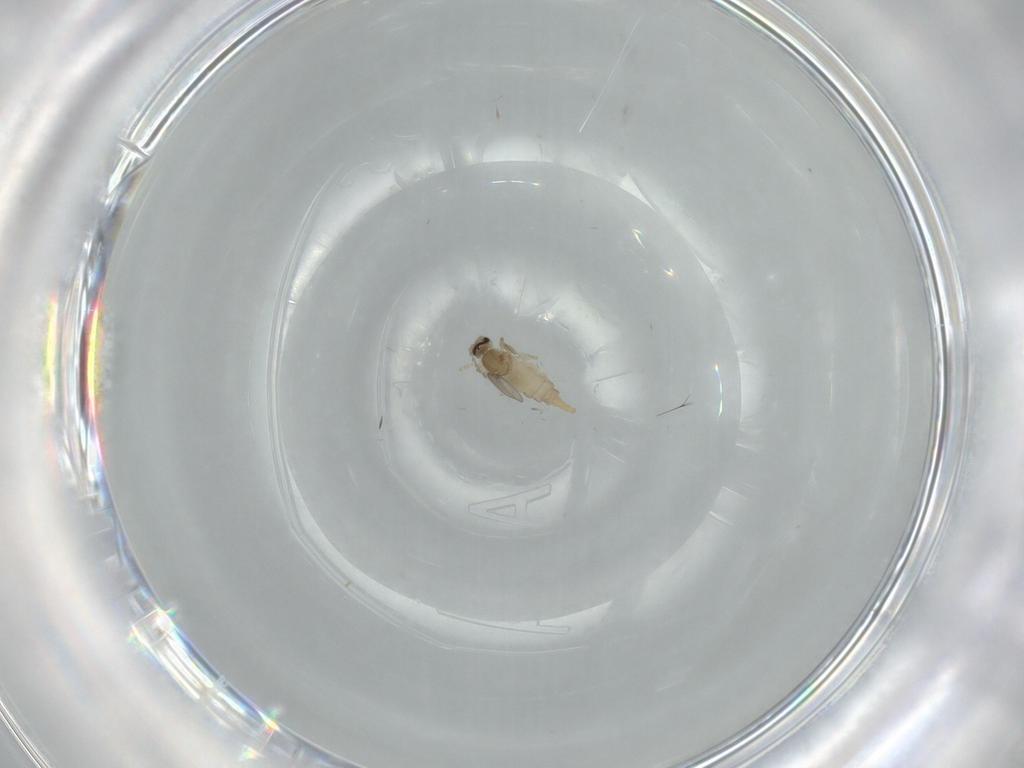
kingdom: Animalia
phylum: Arthropoda
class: Insecta
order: Diptera
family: Cecidomyiidae
